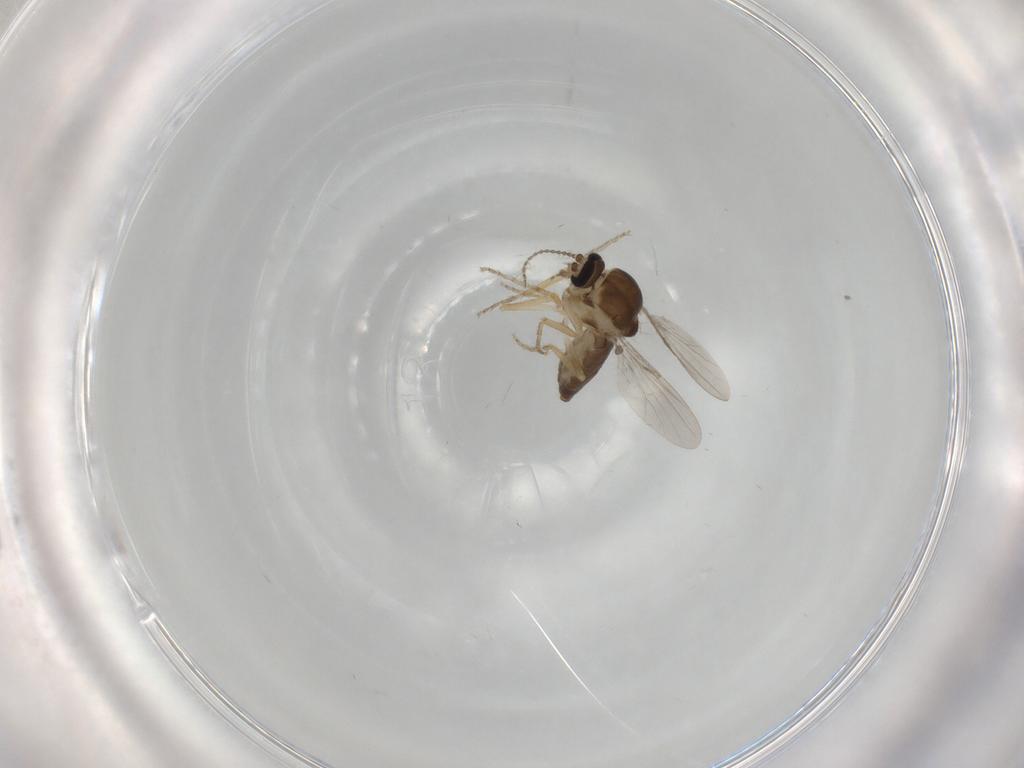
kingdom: Animalia
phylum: Arthropoda
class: Insecta
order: Diptera
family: Ceratopogonidae
